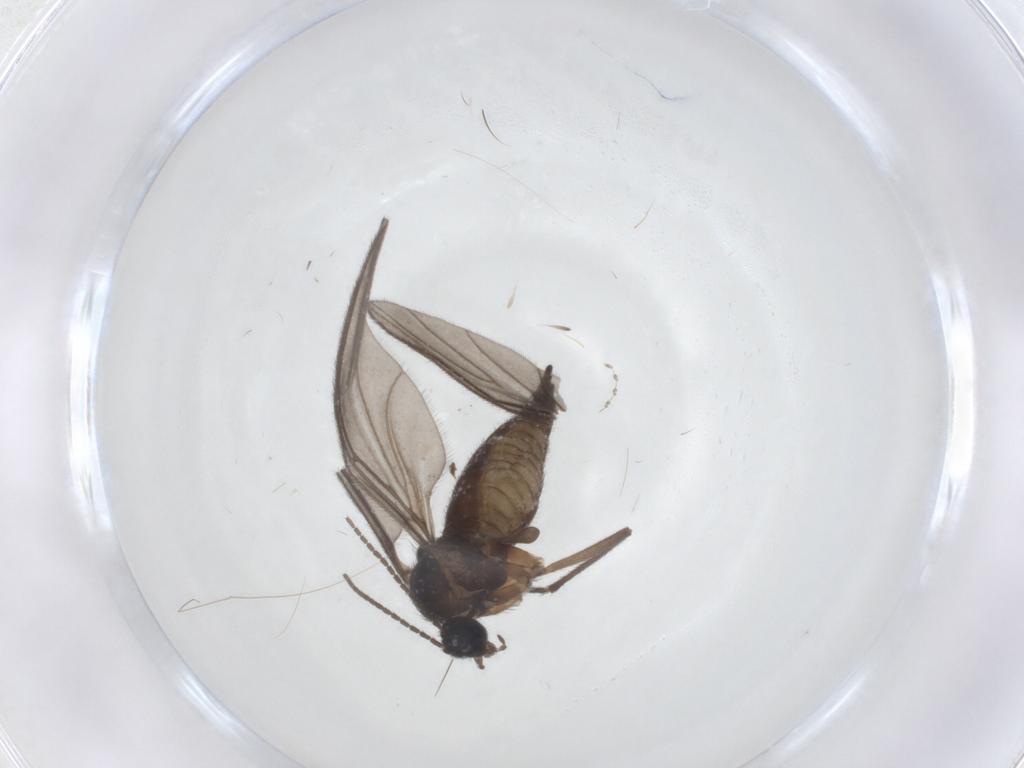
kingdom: Animalia
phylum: Arthropoda
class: Insecta
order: Diptera
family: Sciaridae
